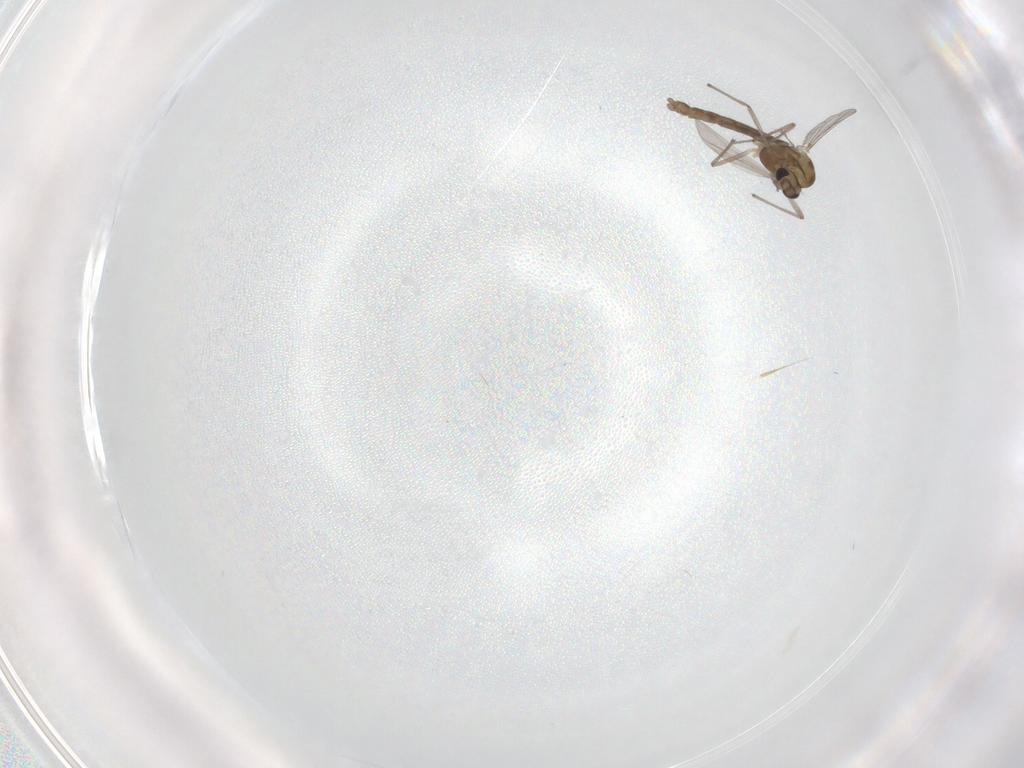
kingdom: Animalia
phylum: Arthropoda
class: Insecta
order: Diptera
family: Chironomidae
